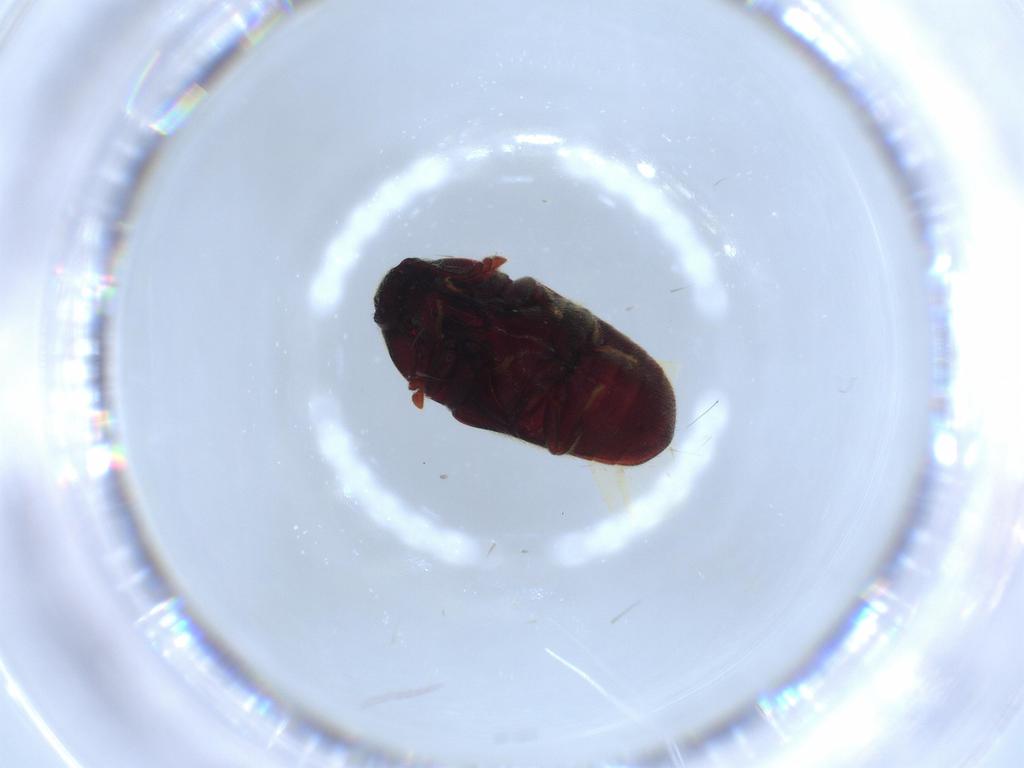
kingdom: Animalia
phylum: Arthropoda
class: Insecta
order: Coleoptera
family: Throscidae
